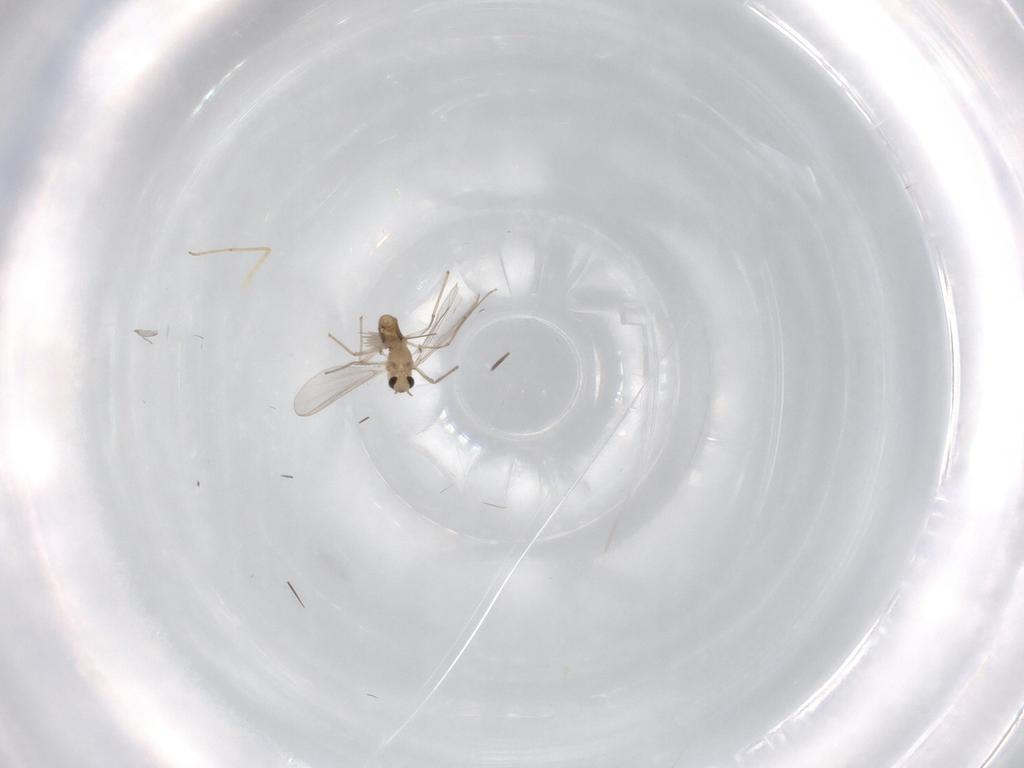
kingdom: Animalia
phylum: Arthropoda
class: Insecta
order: Diptera
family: Chironomidae
